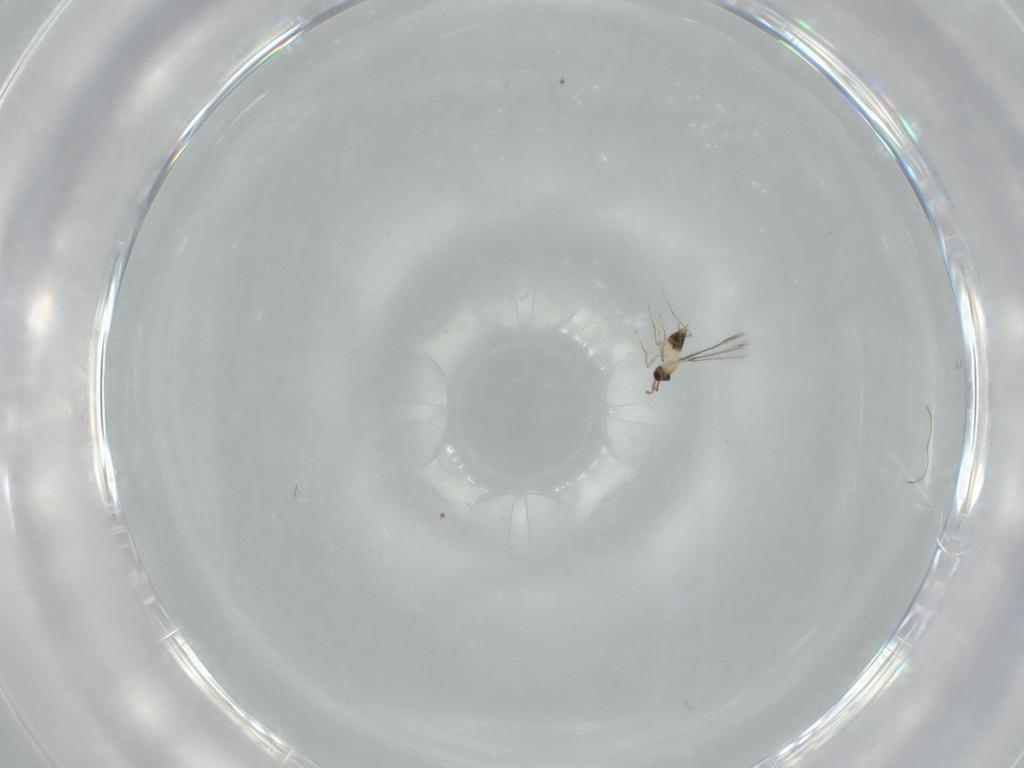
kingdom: Animalia
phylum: Arthropoda
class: Insecta
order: Hymenoptera
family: Mymaridae
